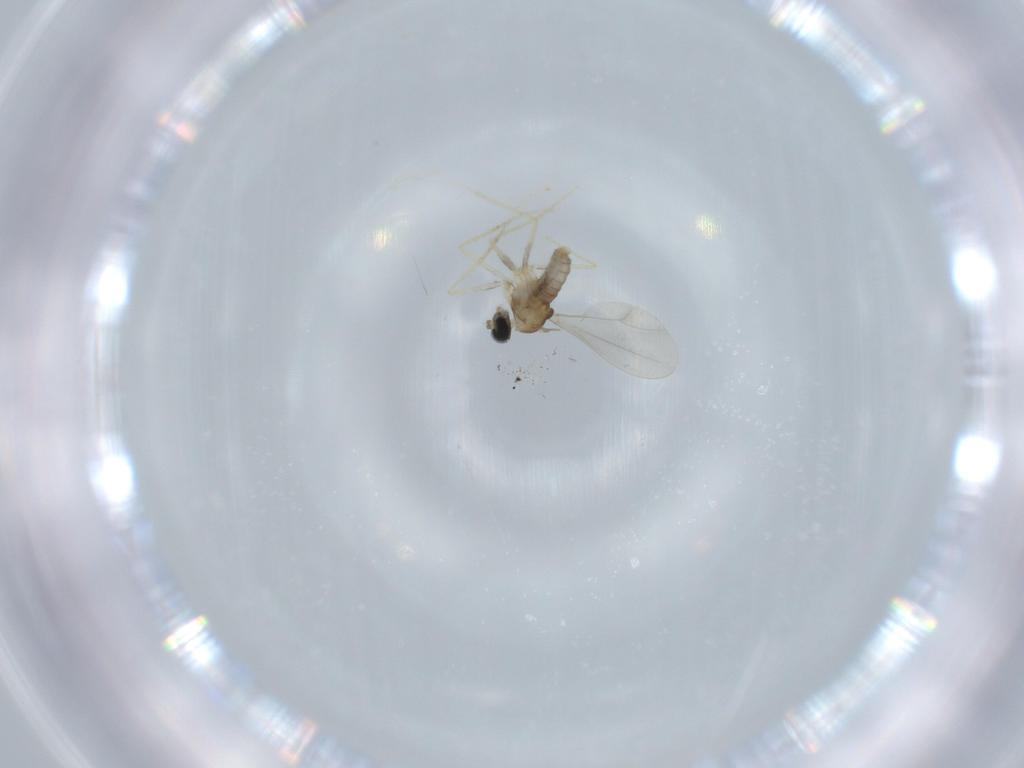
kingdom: Animalia
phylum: Arthropoda
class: Insecta
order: Diptera
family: Cecidomyiidae
